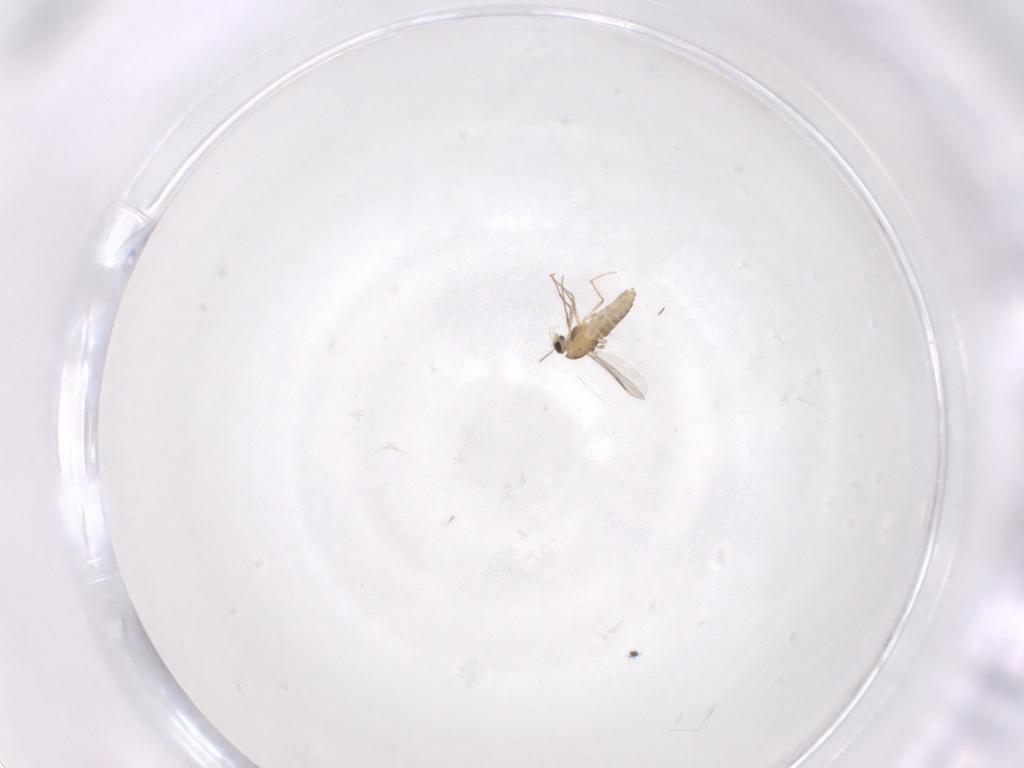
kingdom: Animalia
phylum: Arthropoda
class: Insecta
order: Diptera
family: Chironomidae
